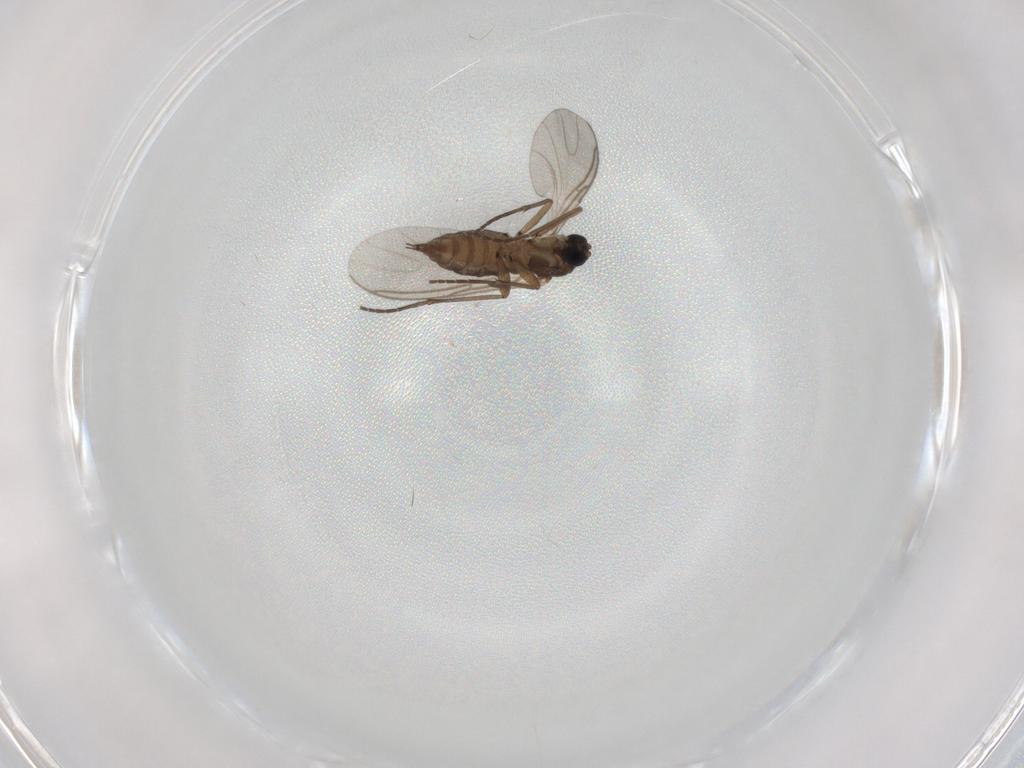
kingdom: Animalia
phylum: Arthropoda
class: Insecta
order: Diptera
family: Sciaridae
